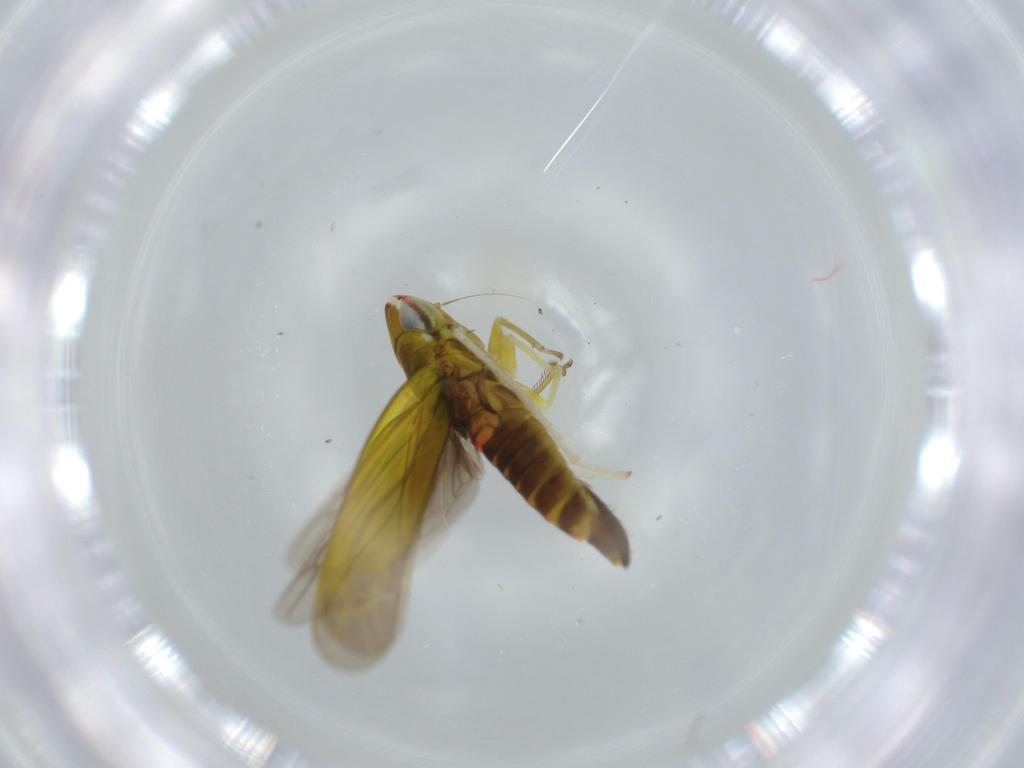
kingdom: Animalia
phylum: Arthropoda
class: Insecta
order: Hemiptera
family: Cicadellidae
